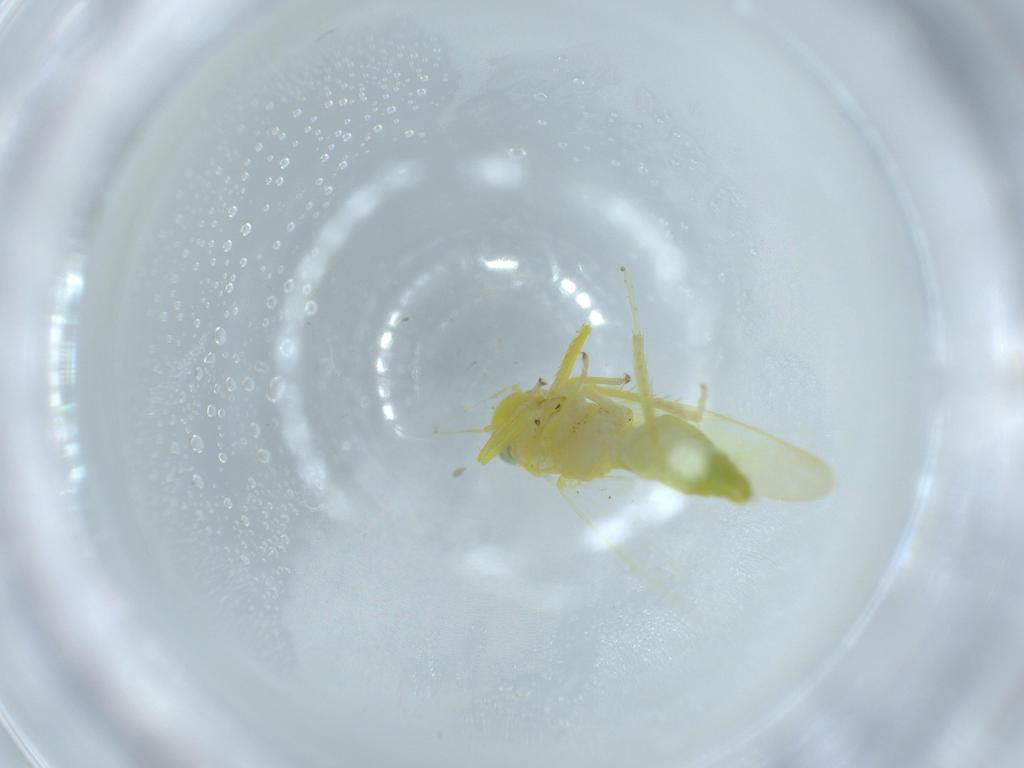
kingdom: Animalia
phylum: Arthropoda
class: Insecta
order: Hemiptera
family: Cicadellidae
